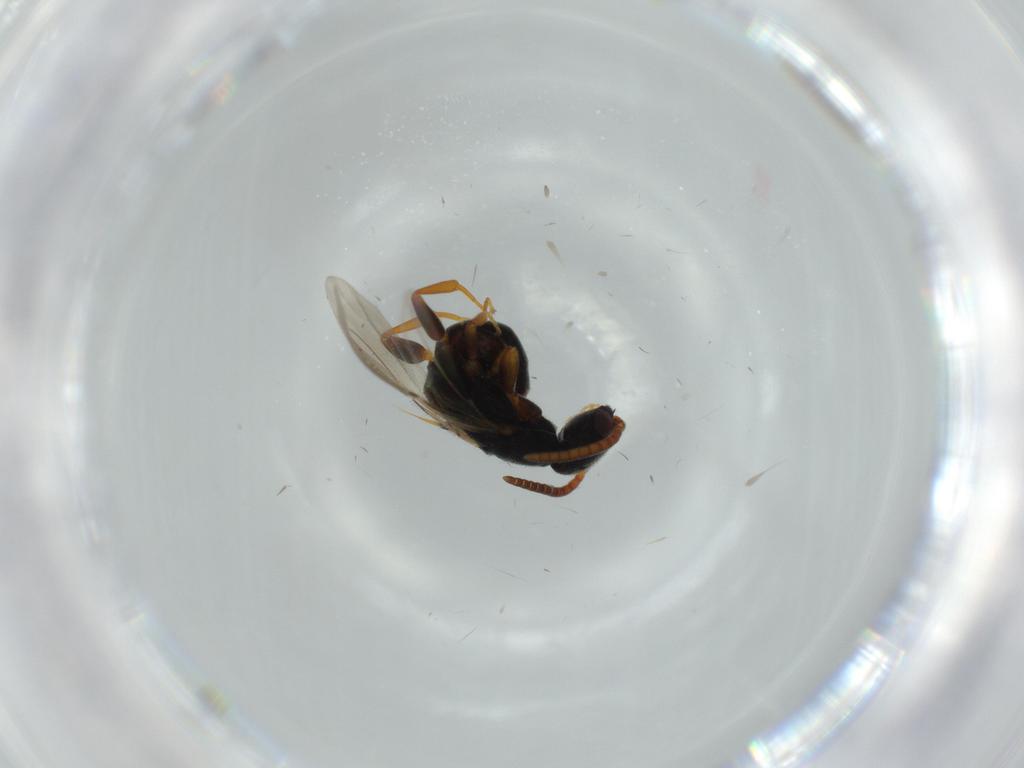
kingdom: Animalia
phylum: Arthropoda
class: Insecta
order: Hymenoptera
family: Bethylidae
